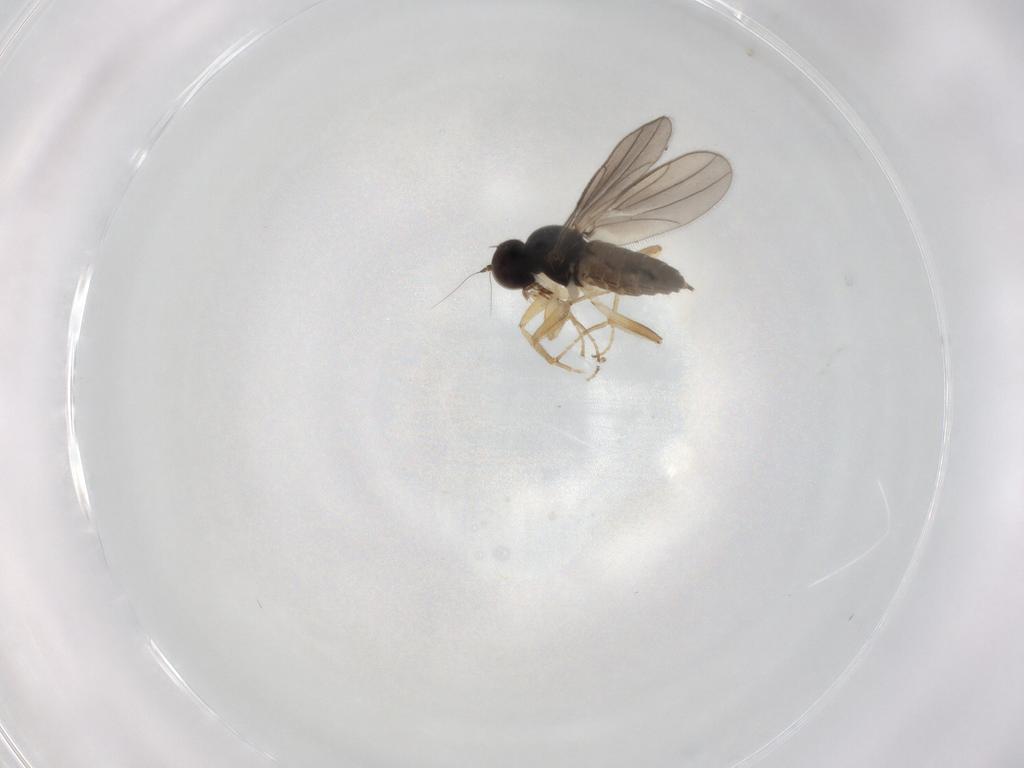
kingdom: Animalia
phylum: Arthropoda
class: Insecta
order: Diptera
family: Hybotidae
